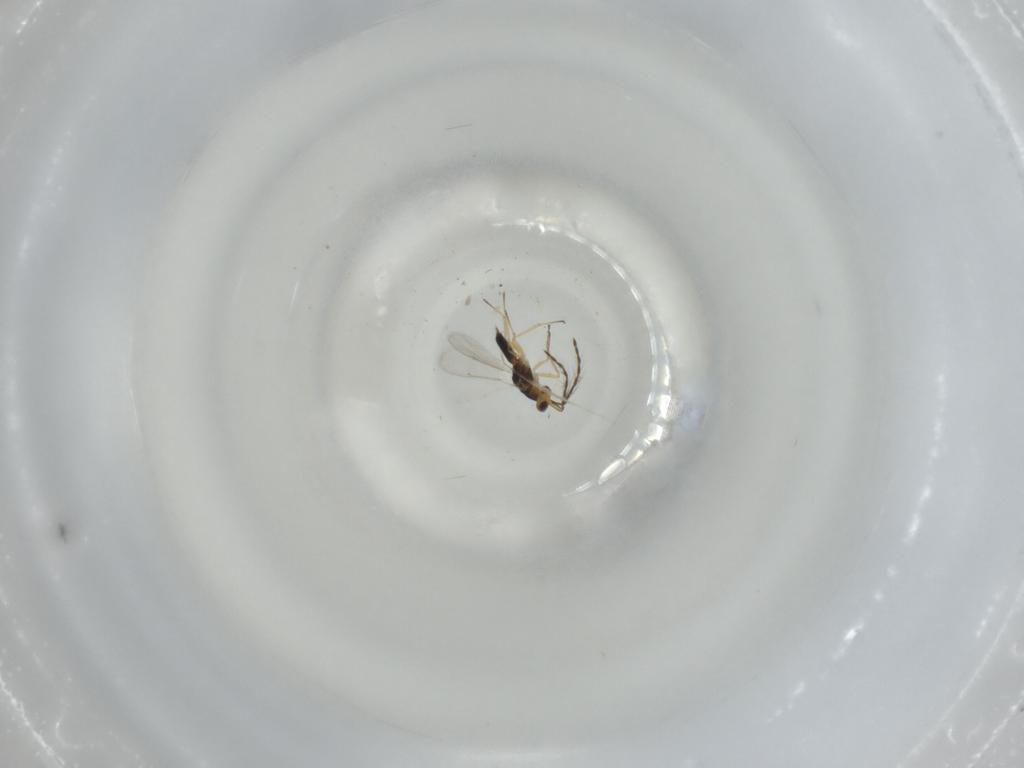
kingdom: Animalia
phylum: Arthropoda
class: Insecta
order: Hymenoptera
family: Eulophidae
